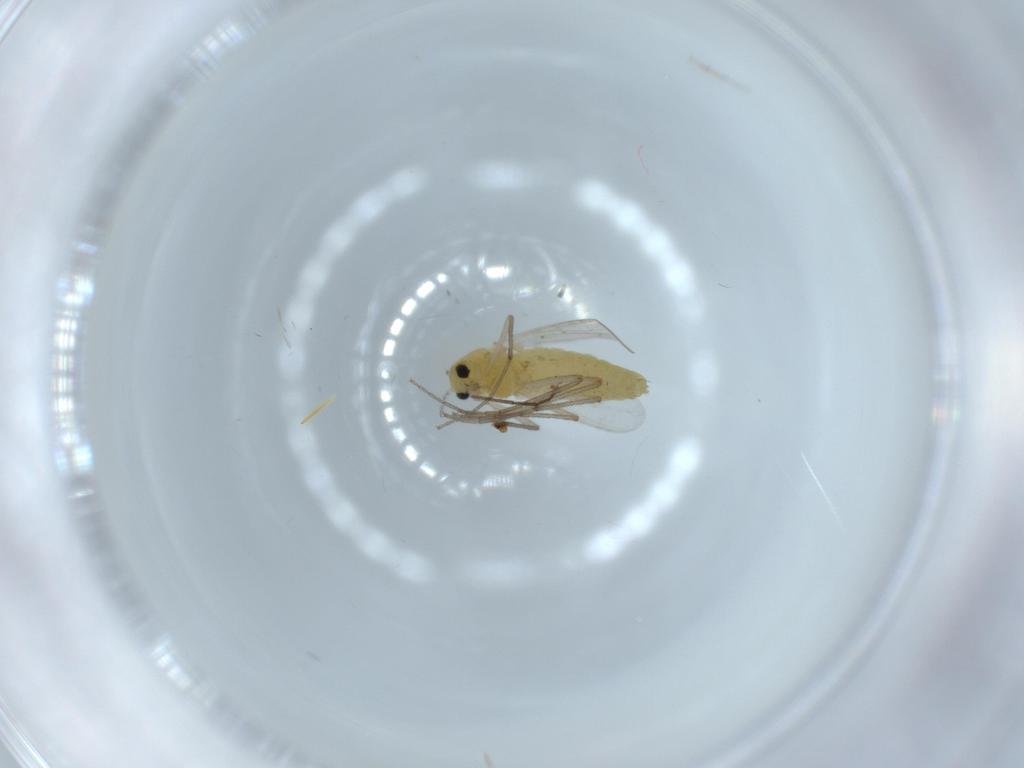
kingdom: Animalia
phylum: Arthropoda
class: Insecta
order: Diptera
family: Chironomidae
